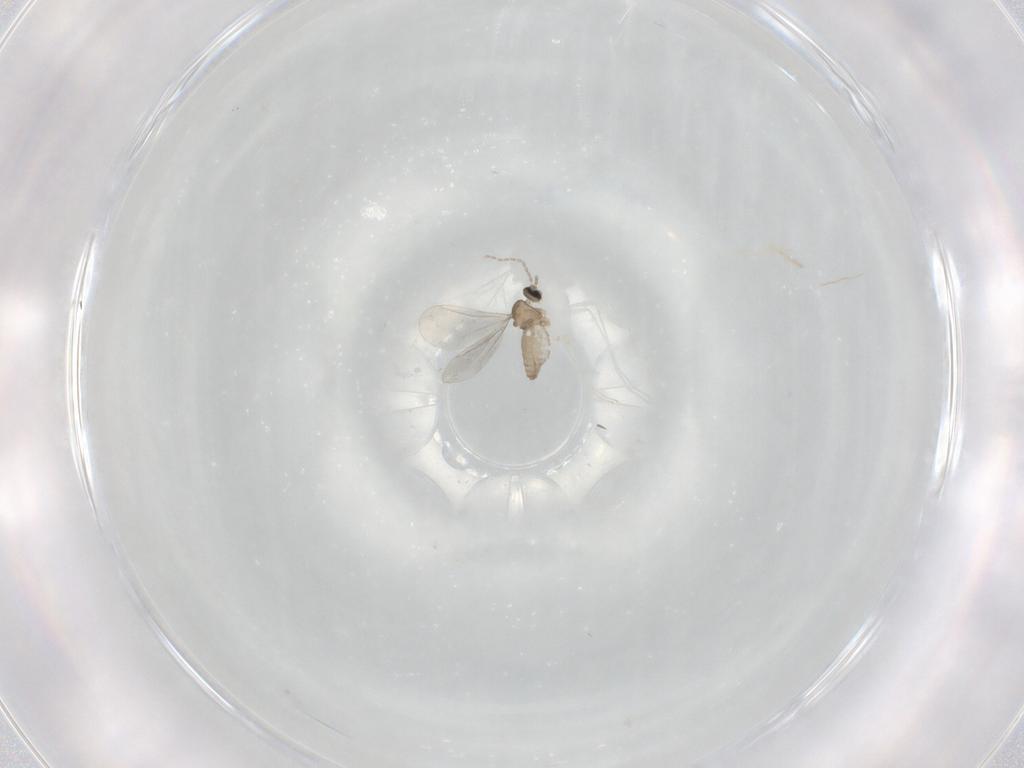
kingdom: Animalia
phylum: Arthropoda
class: Insecta
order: Diptera
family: Cecidomyiidae
